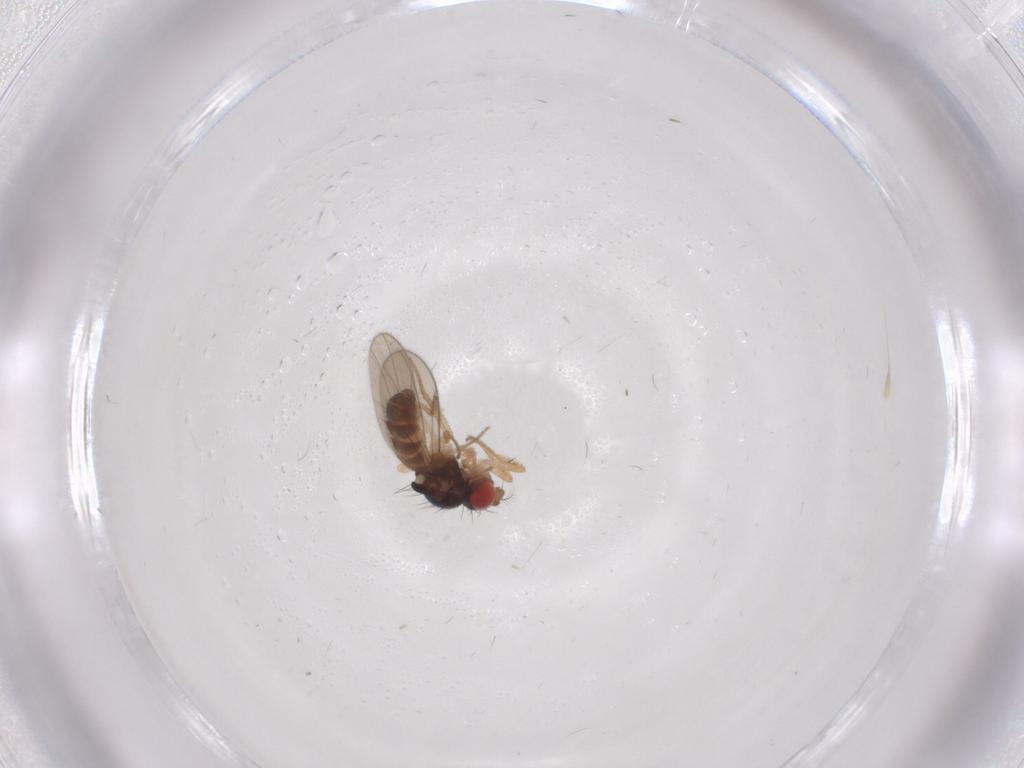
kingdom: Animalia
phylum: Arthropoda
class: Insecta
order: Diptera
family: Drosophilidae
